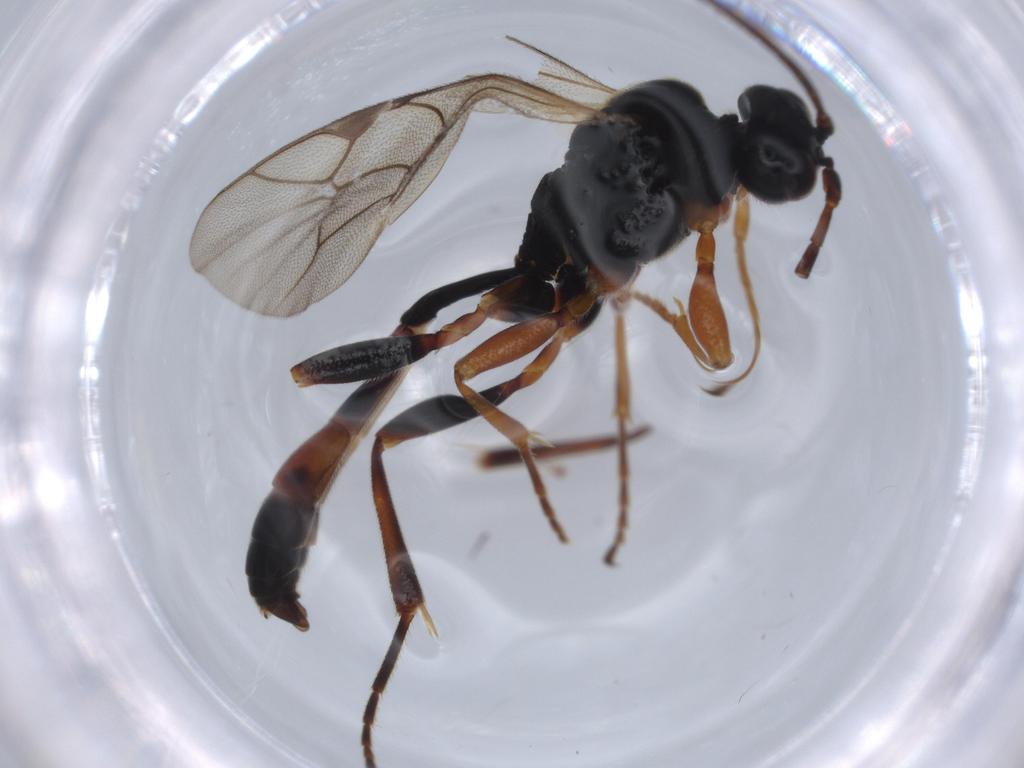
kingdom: Animalia
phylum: Arthropoda
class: Insecta
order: Hymenoptera
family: Ichneumonidae
